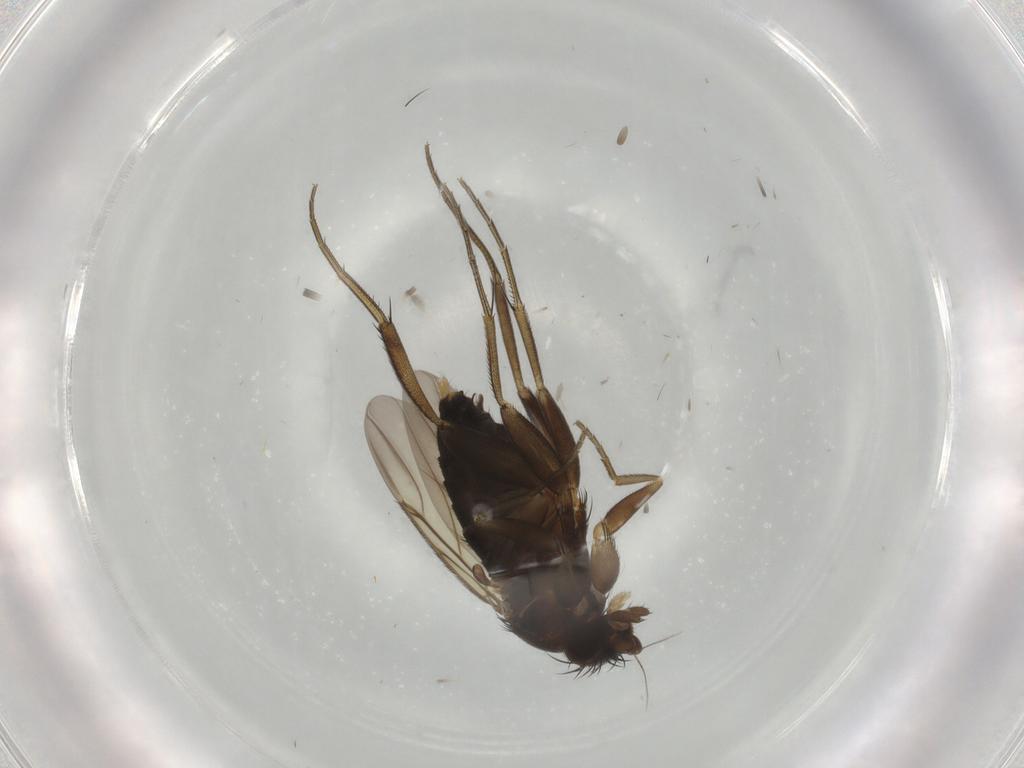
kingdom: Animalia
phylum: Arthropoda
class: Insecta
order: Diptera
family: Phoridae
